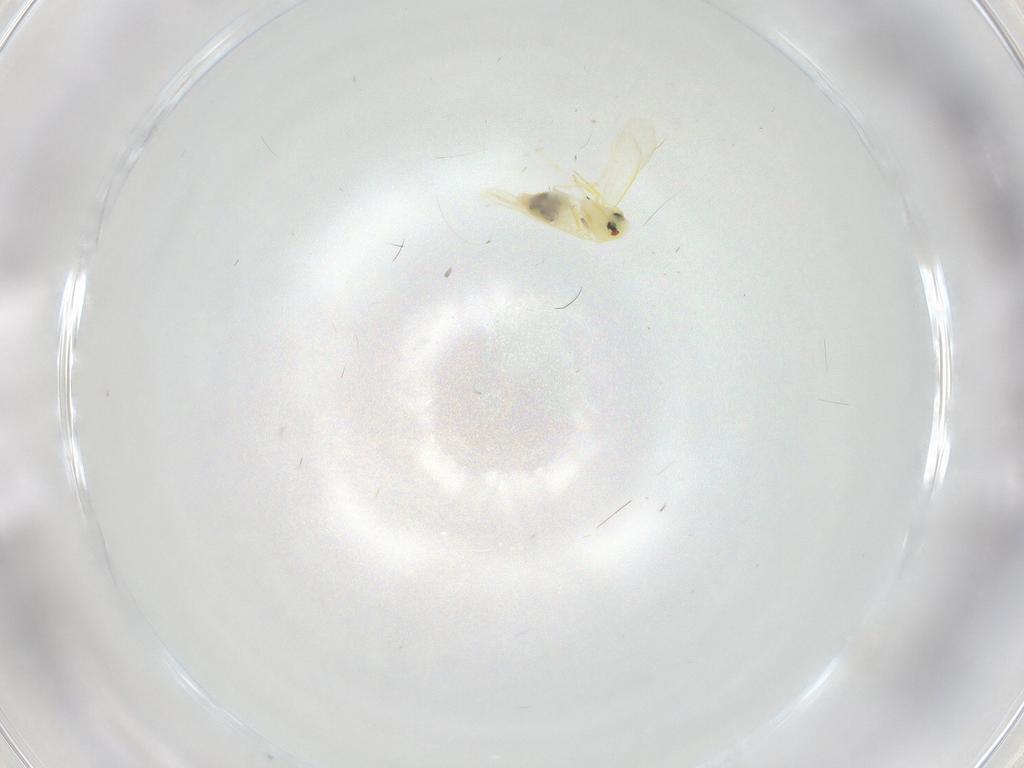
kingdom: Animalia
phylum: Arthropoda
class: Insecta
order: Hemiptera
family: Aleyrodidae
